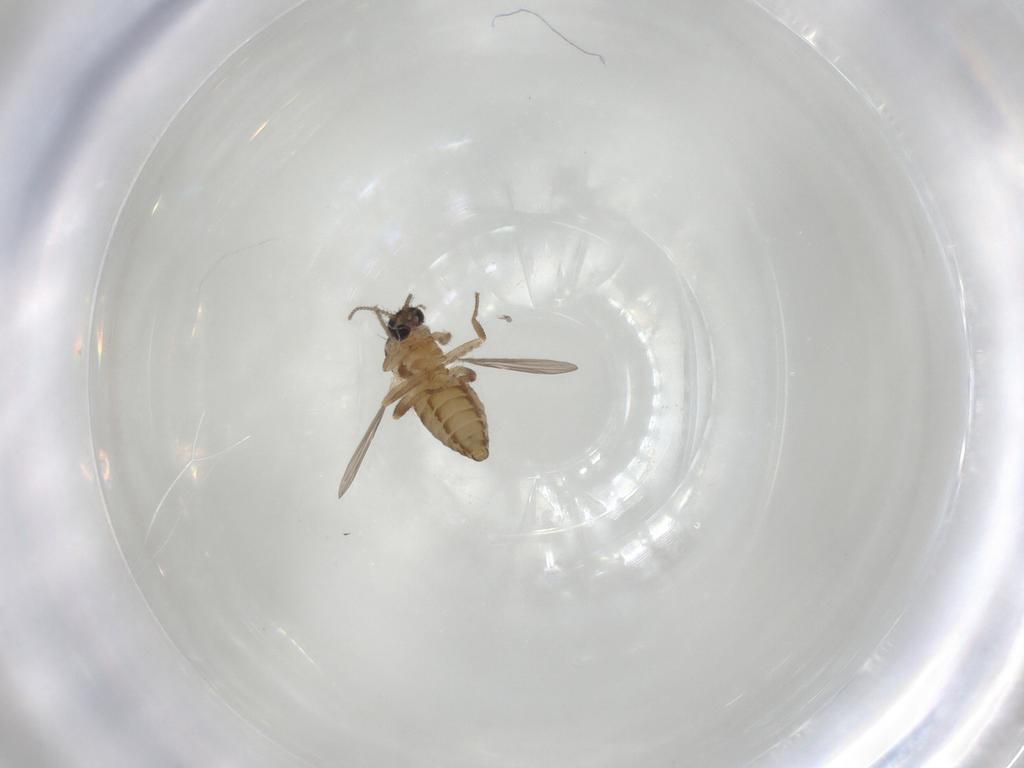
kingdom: Animalia
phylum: Arthropoda
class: Insecta
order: Diptera
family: Ceratopogonidae
